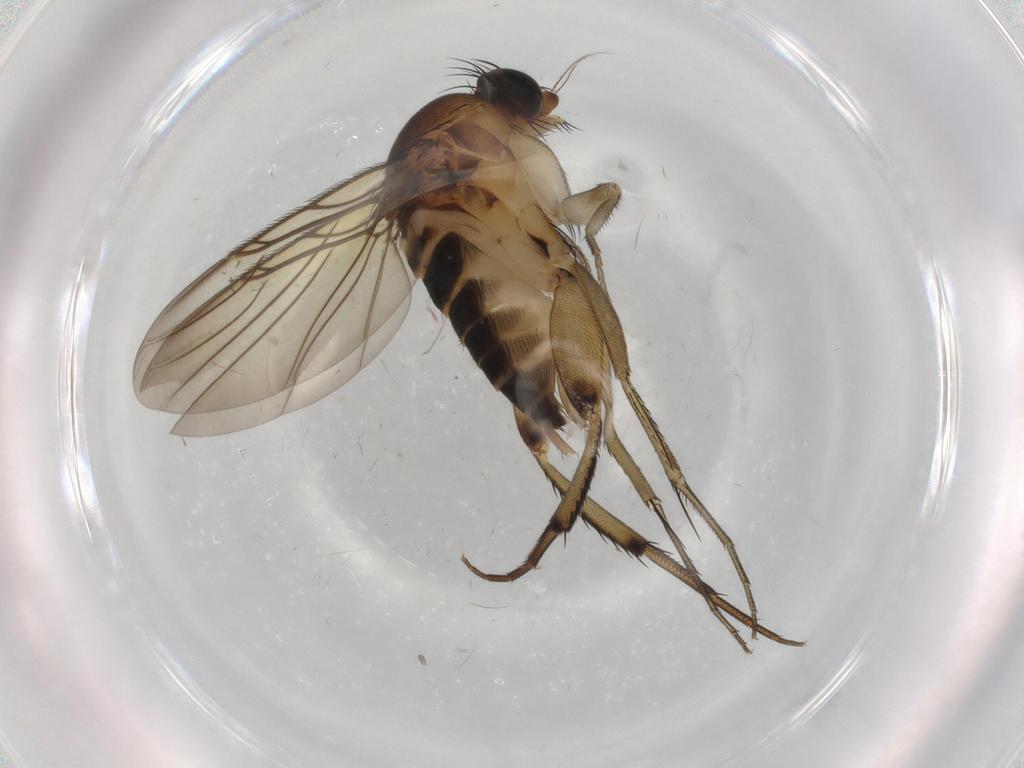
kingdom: Animalia
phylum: Arthropoda
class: Insecta
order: Diptera
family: Phoridae
